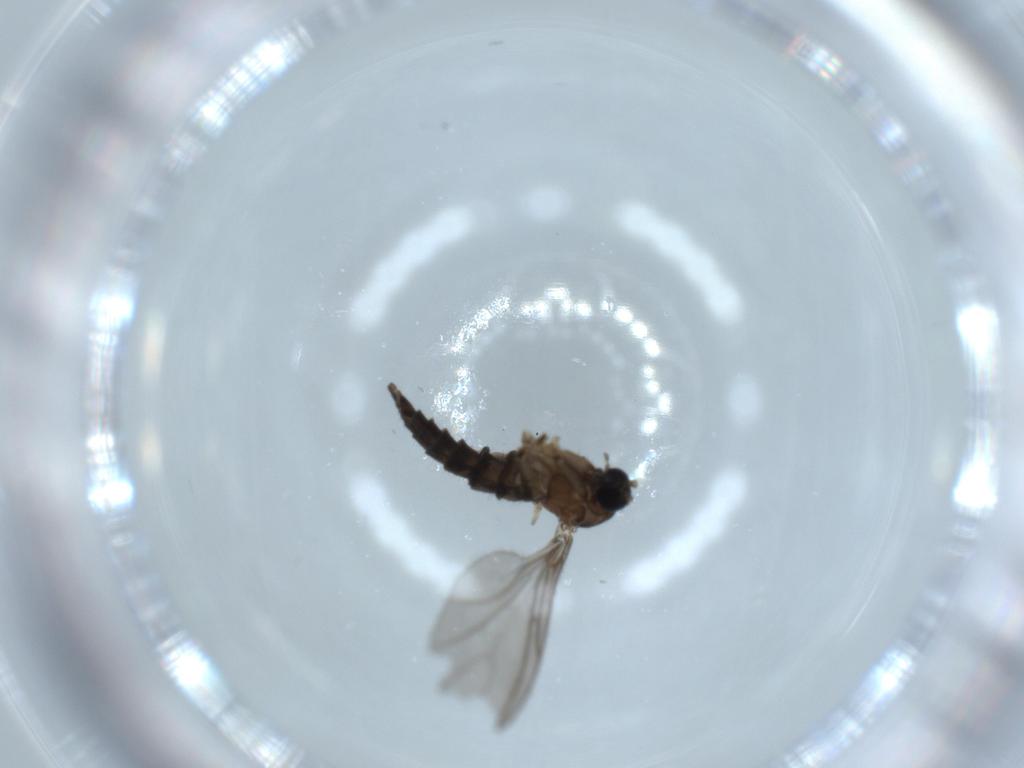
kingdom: Animalia
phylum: Arthropoda
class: Insecta
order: Diptera
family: Sciaridae
